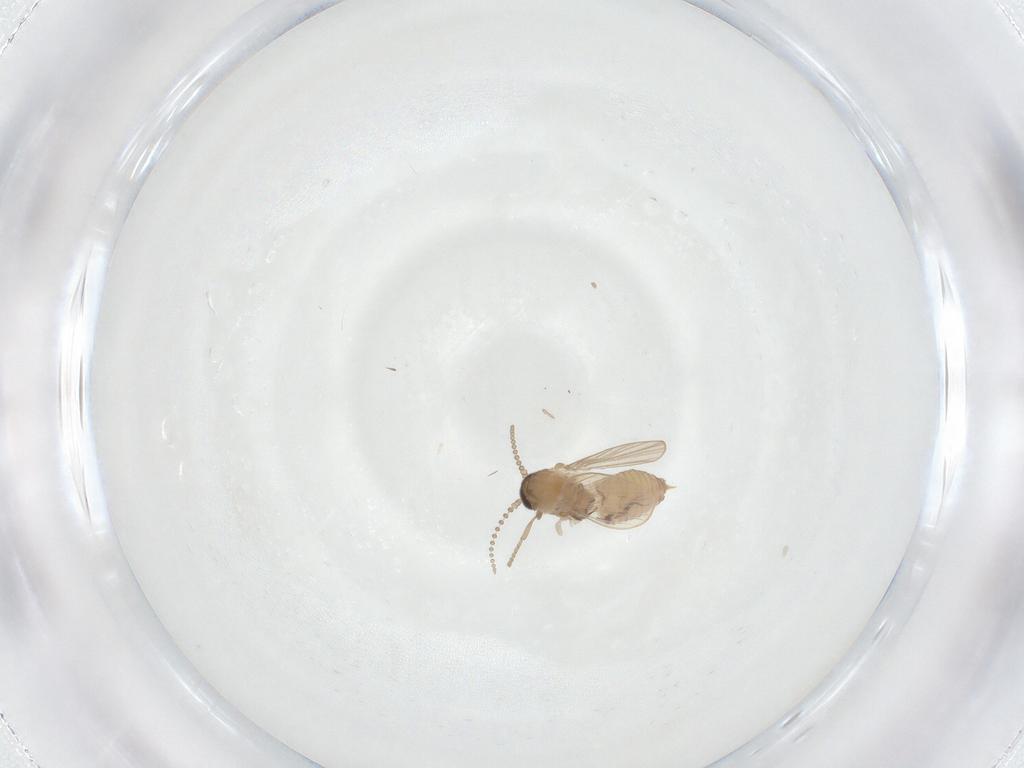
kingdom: Animalia
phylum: Arthropoda
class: Insecta
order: Diptera
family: Psychodidae
